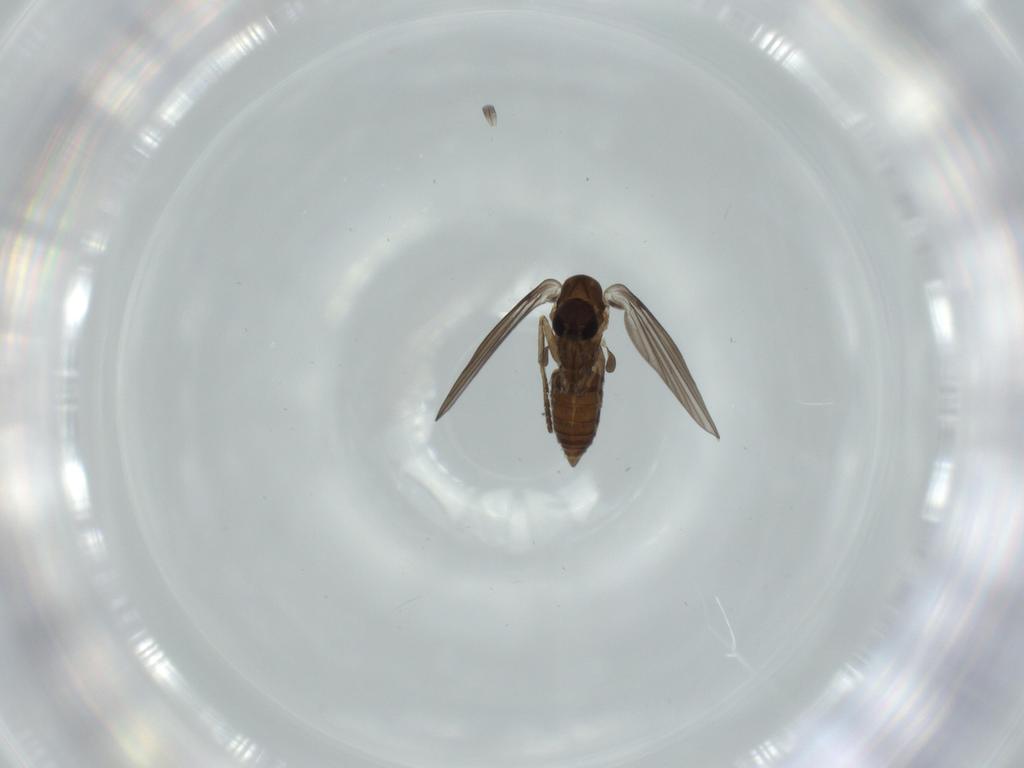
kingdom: Animalia
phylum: Arthropoda
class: Insecta
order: Diptera
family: Psychodidae
